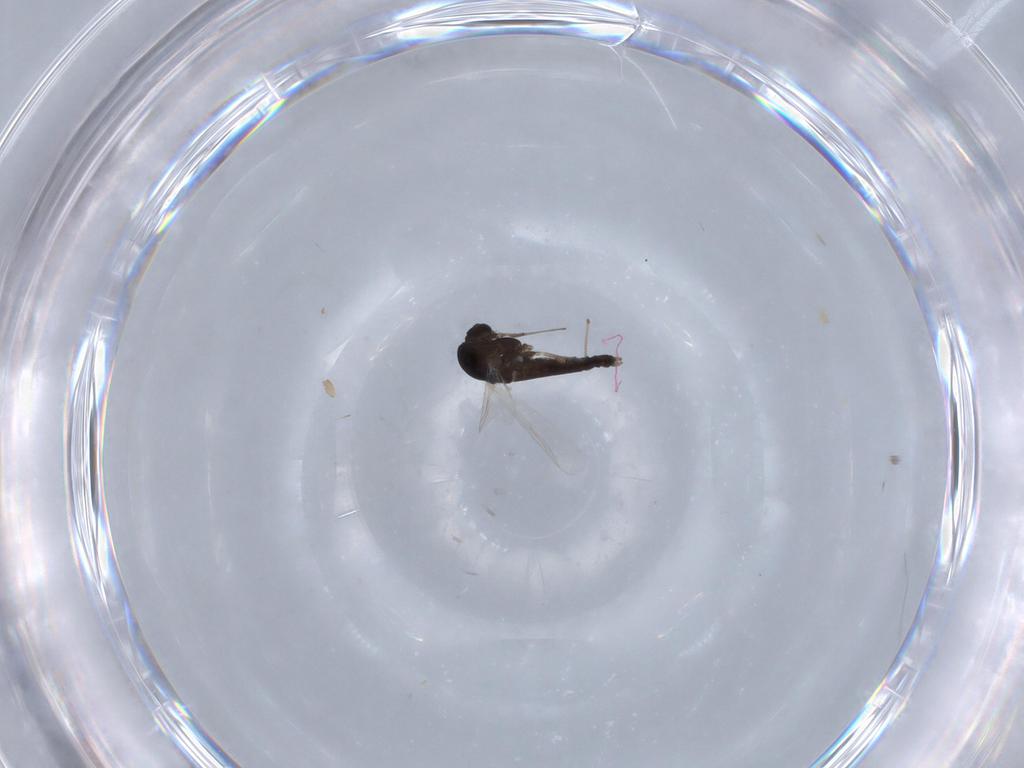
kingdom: Animalia
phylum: Arthropoda
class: Insecta
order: Diptera
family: Chironomidae
